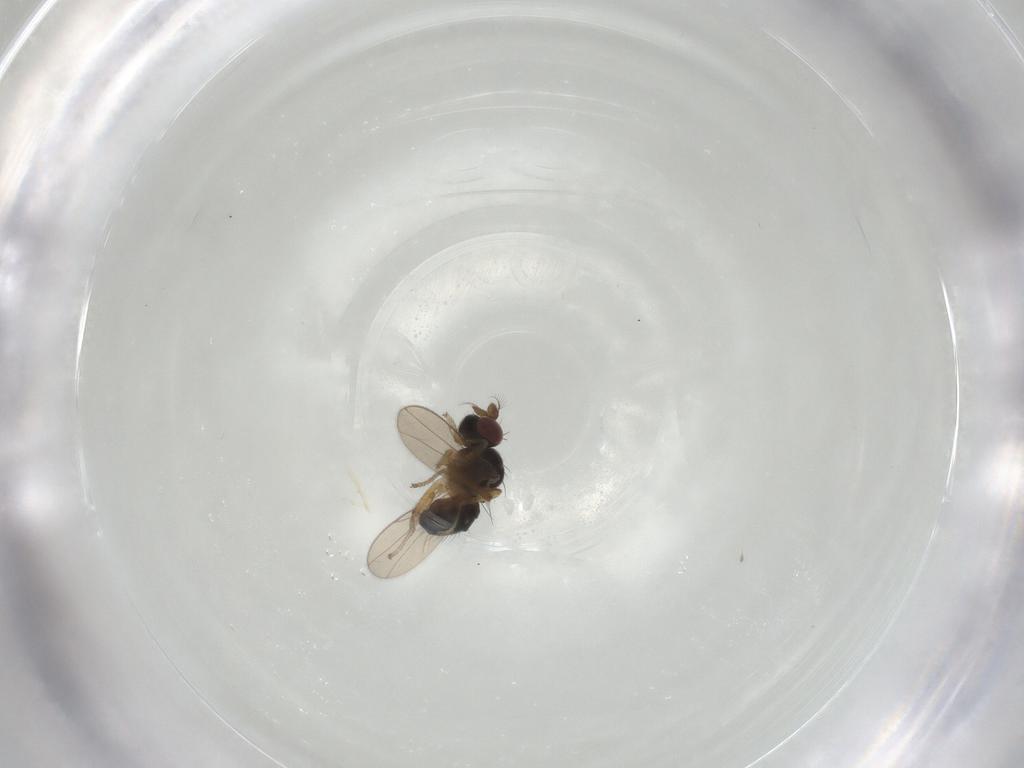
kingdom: Animalia
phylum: Arthropoda
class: Insecta
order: Diptera
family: Ephydridae
